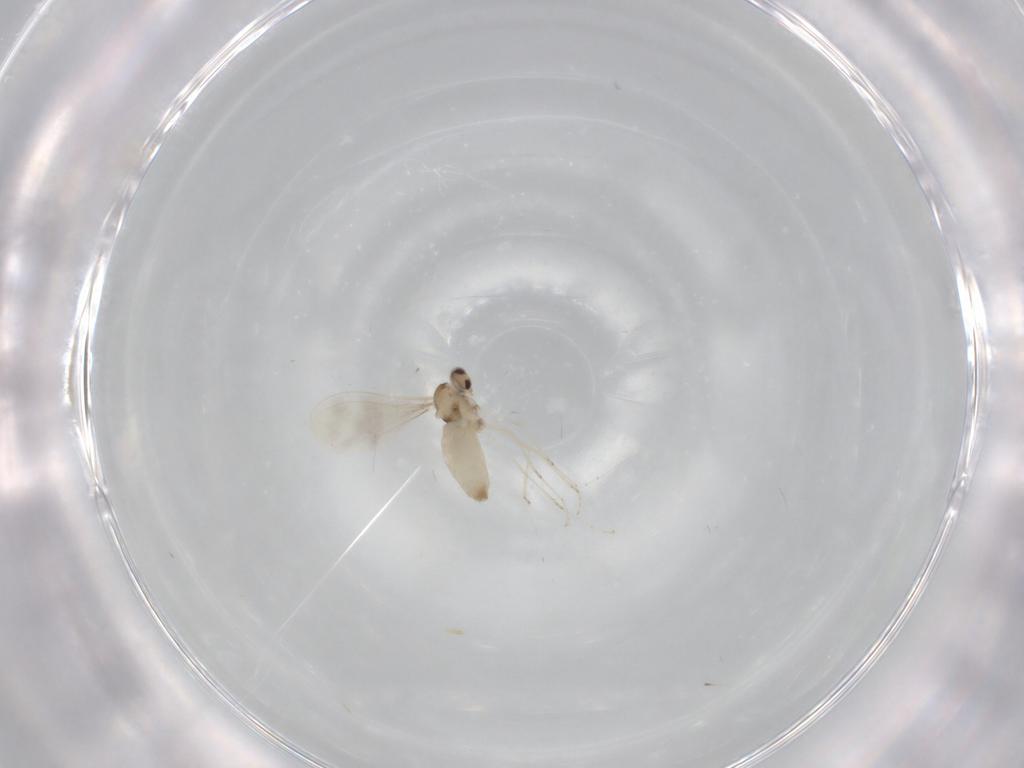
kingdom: Animalia
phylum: Arthropoda
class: Insecta
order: Diptera
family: Cecidomyiidae
